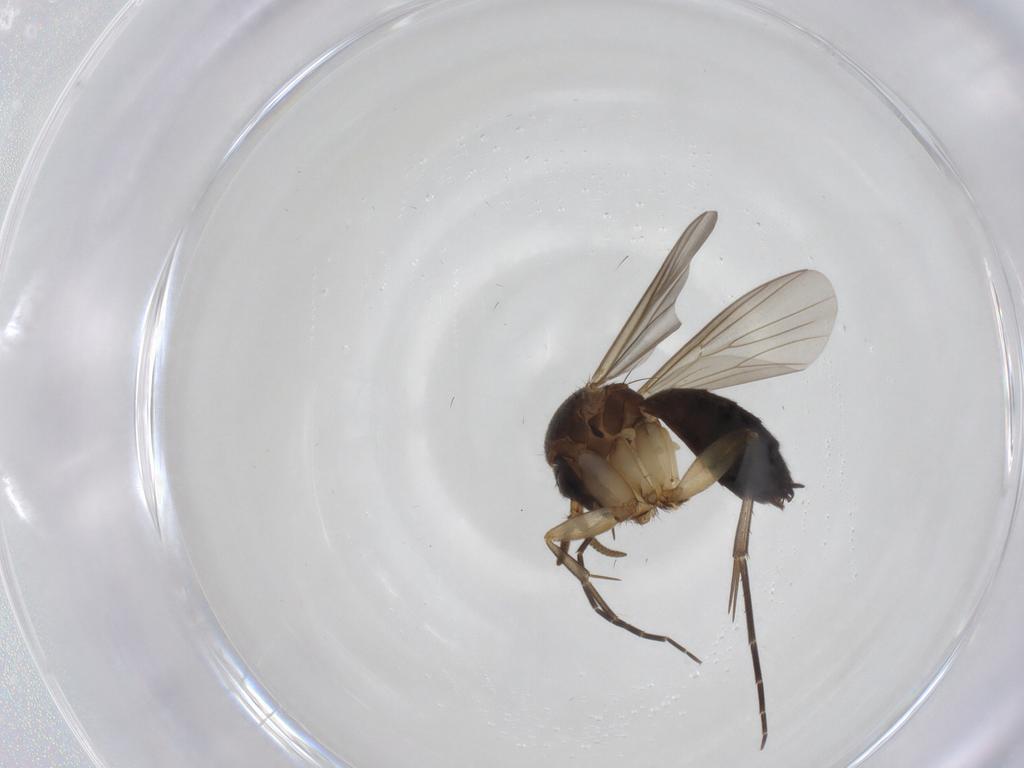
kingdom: Animalia
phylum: Arthropoda
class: Insecta
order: Diptera
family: Mycetophilidae
